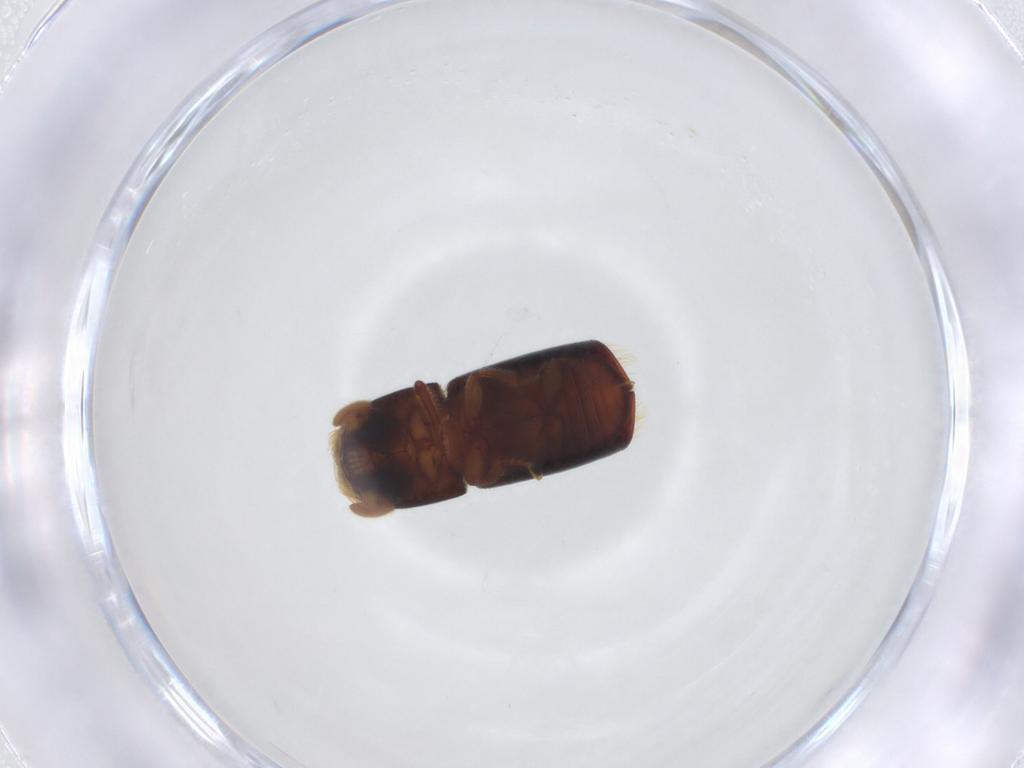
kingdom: Animalia
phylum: Arthropoda
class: Insecta
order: Coleoptera
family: Curculionidae
